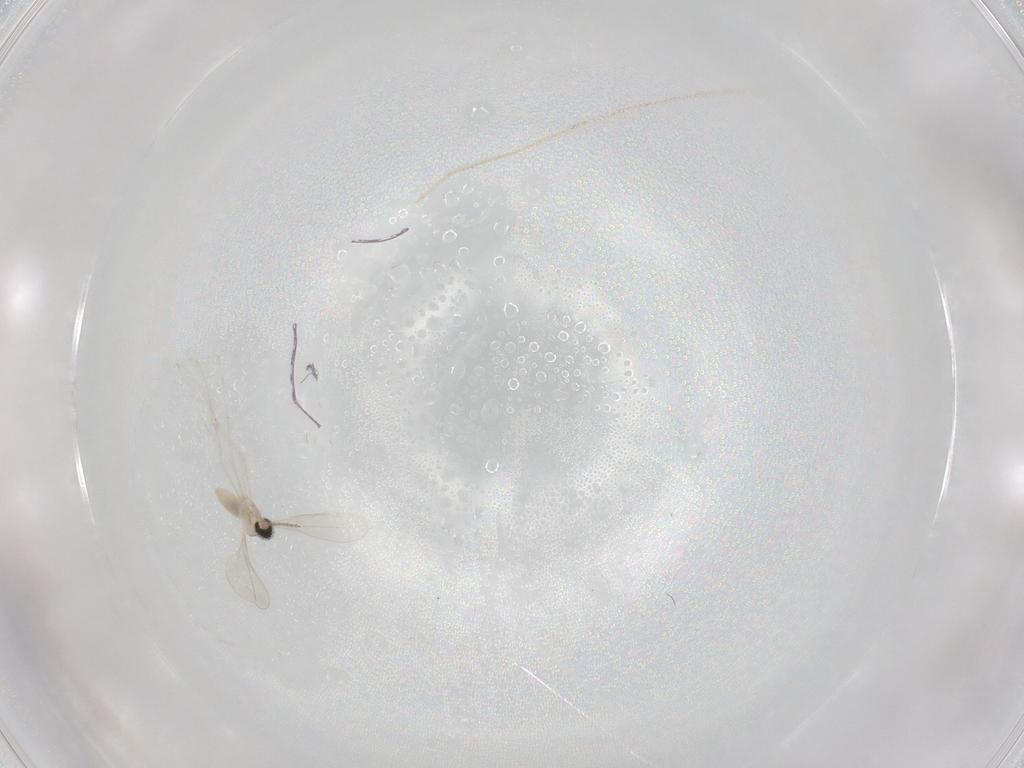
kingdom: Animalia
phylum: Arthropoda
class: Insecta
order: Diptera
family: Cecidomyiidae
